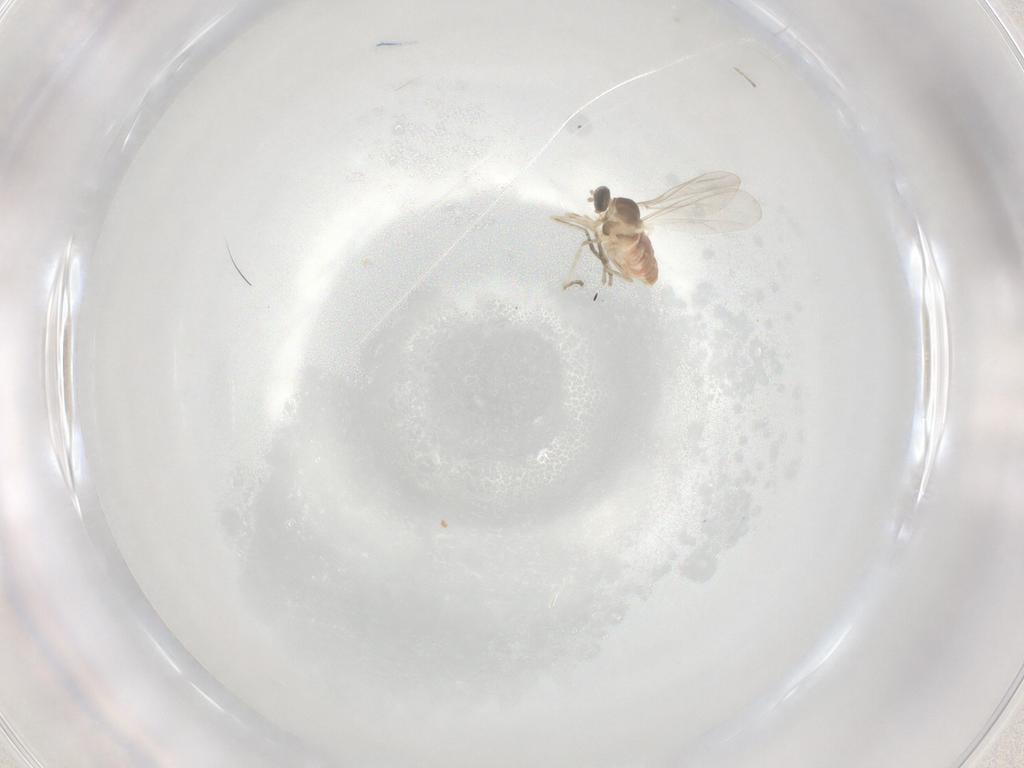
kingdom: Animalia
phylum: Arthropoda
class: Insecta
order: Diptera
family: Cecidomyiidae
